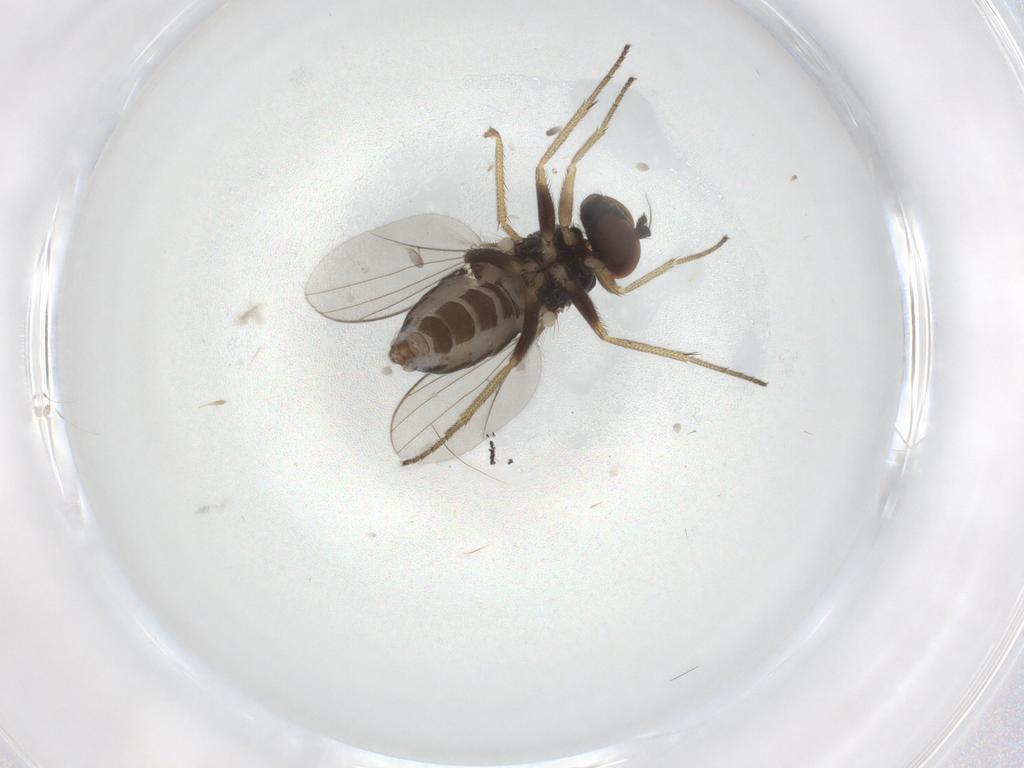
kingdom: Animalia
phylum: Arthropoda
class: Insecta
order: Diptera
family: Dolichopodidae
